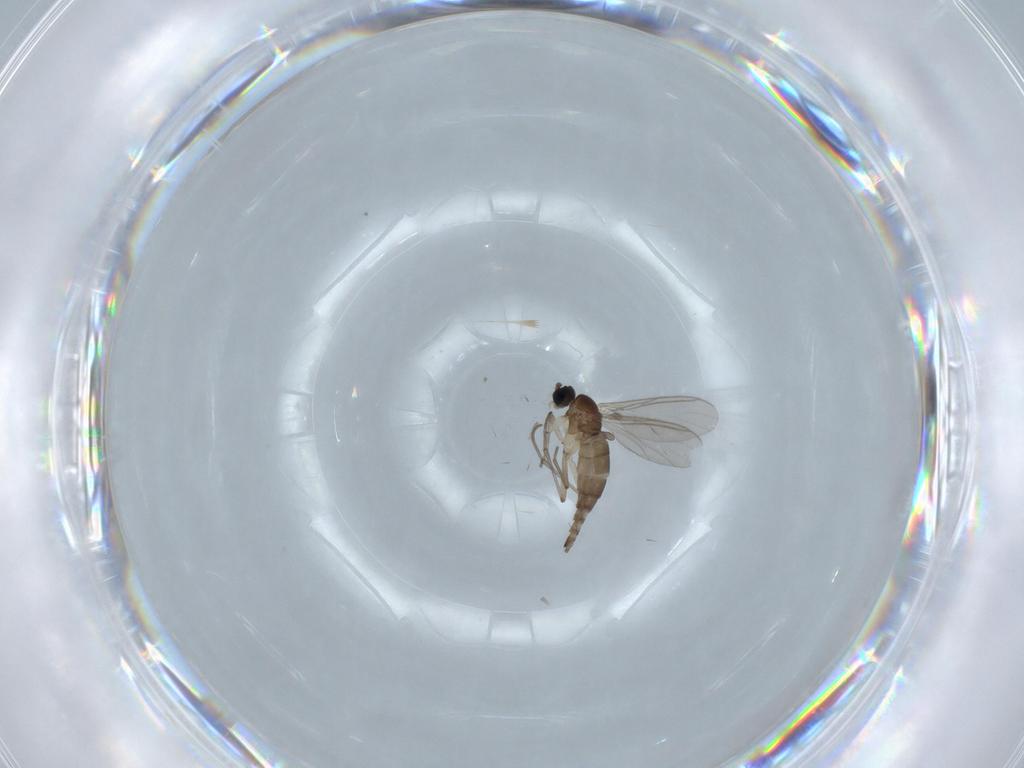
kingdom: Animalia
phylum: Arthropoda
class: Insecta
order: Diptera
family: Sciaridae
